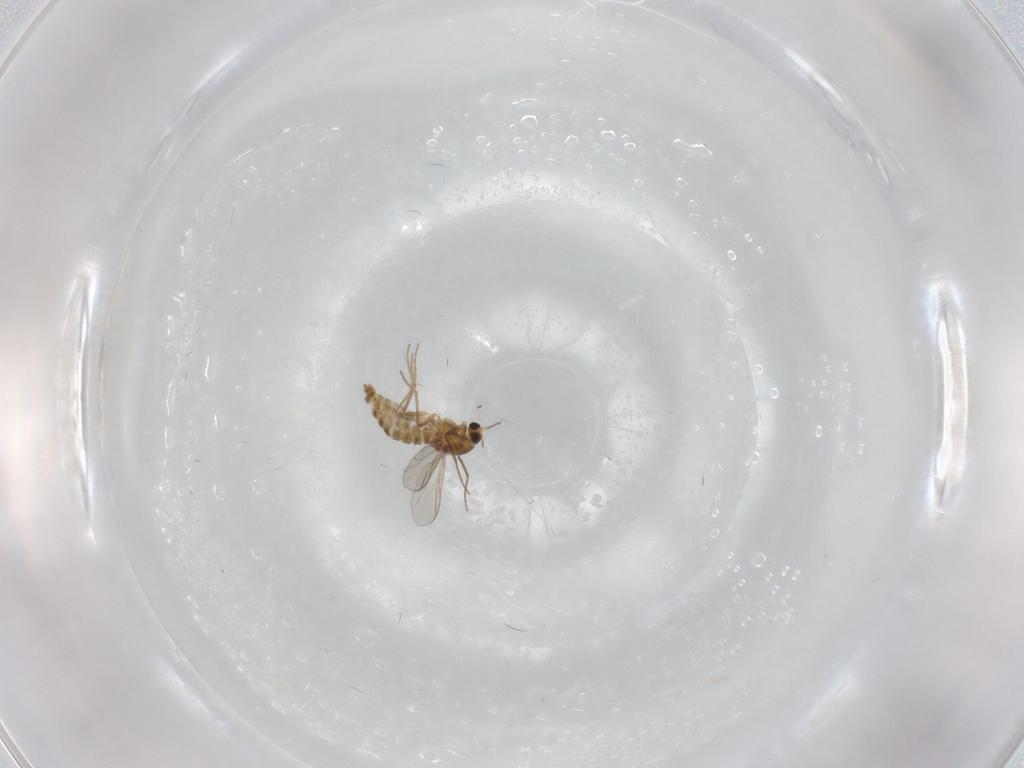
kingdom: Animalia
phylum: Arthropoda
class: Insecta
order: Diptera
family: Chironomidae
